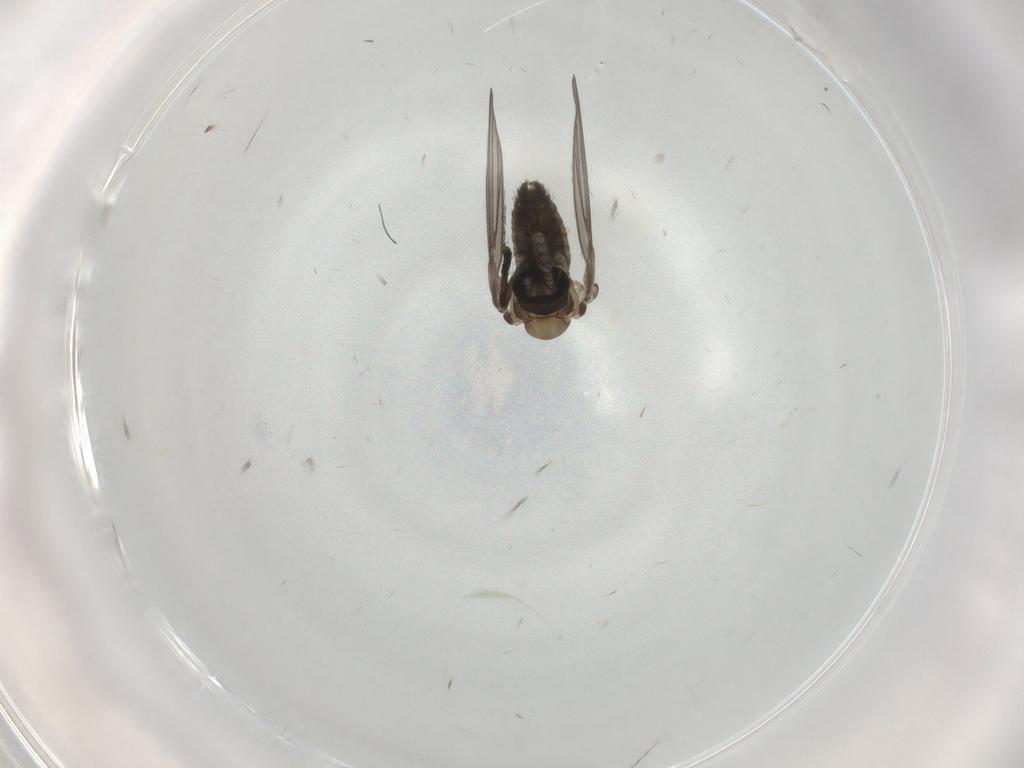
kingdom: Animalia
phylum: Arthropoda
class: Insecta
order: Diptera
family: Psychodidae
